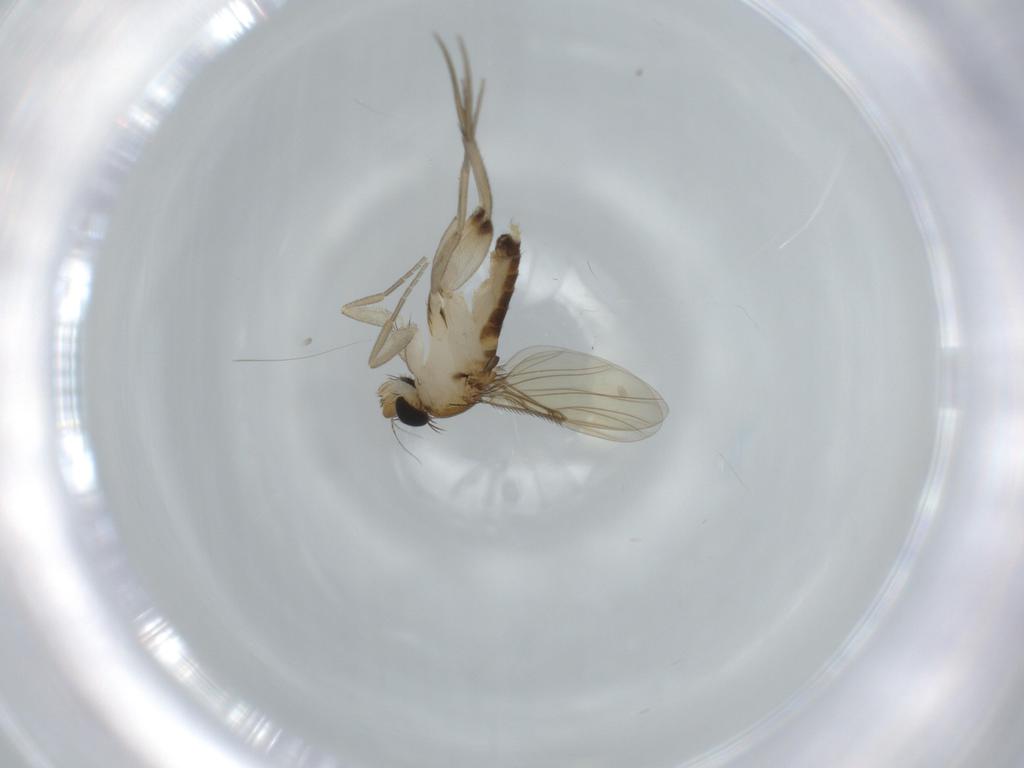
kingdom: Animalia
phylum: Arthropoda
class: Insecta
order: Diptera
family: Phoridae
